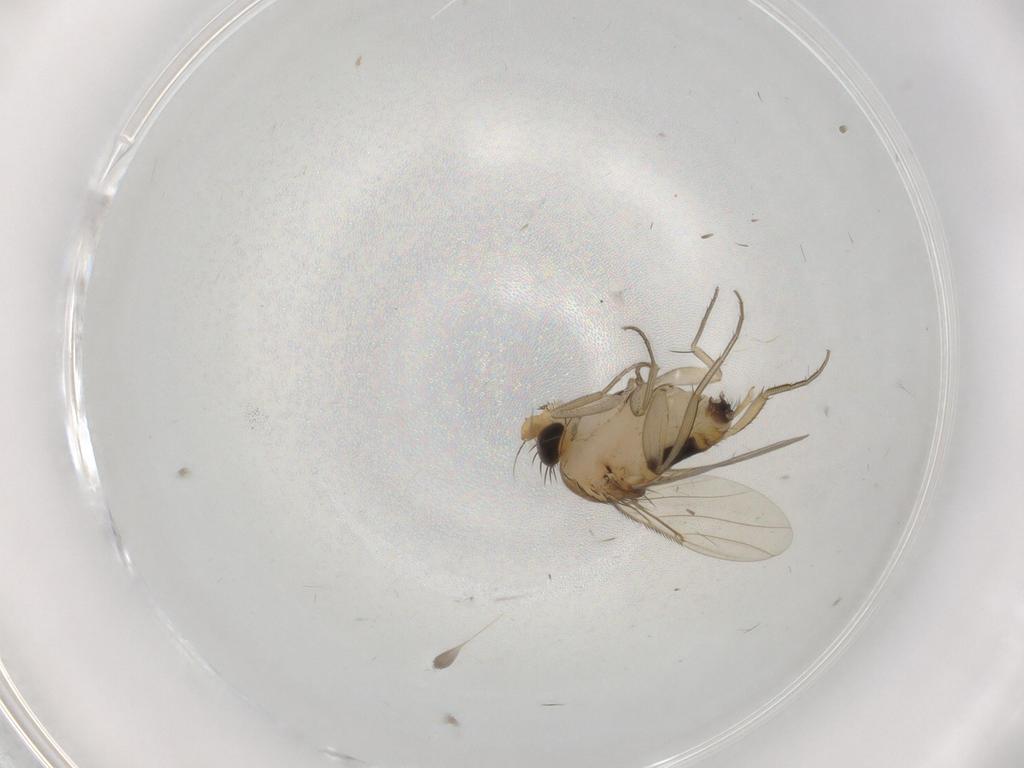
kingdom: Animalia
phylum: Arthropoda
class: Insecta
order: Diptera
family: Phoridae
